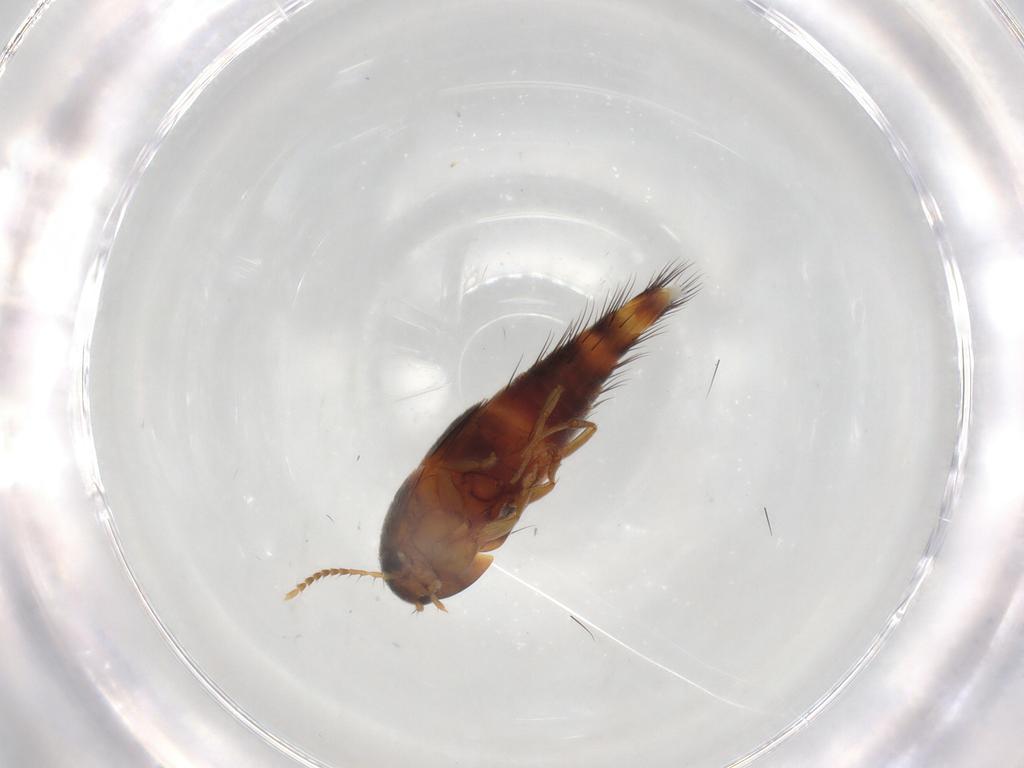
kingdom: Animalia
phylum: Arthropoda
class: Insecta
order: Coleoptera
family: Staphylinidae
